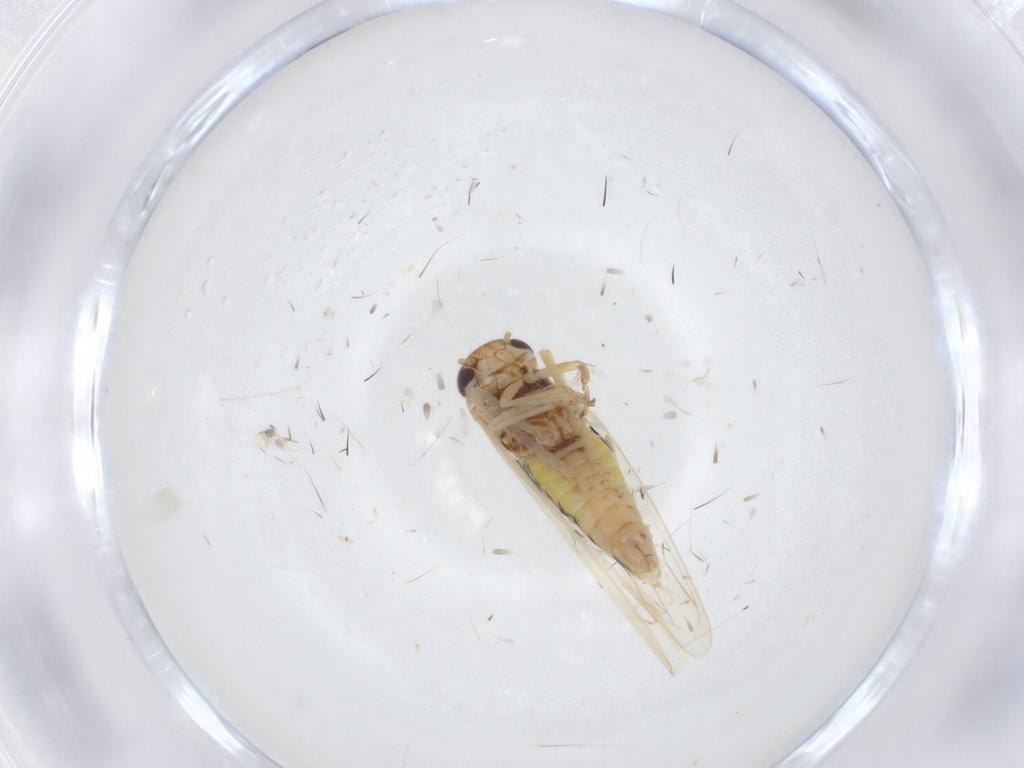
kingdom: Animalia
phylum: Arthropoda
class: Insecta
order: Hemiptera
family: Cicadellidae
